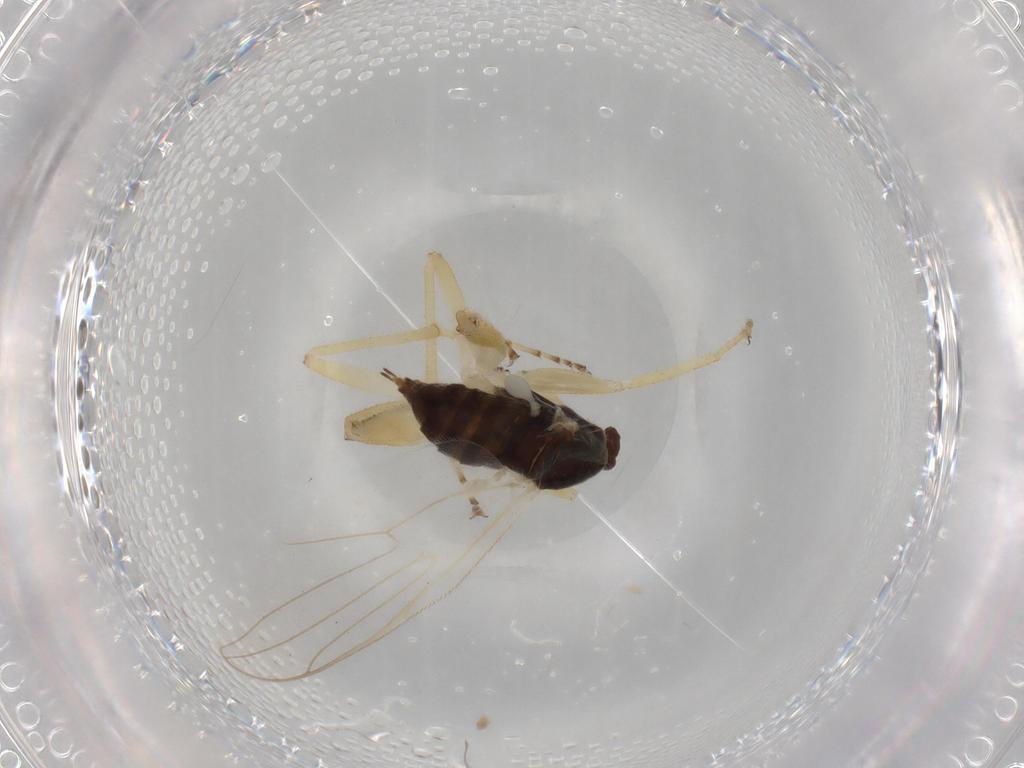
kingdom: Animalia
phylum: Arthropoda
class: Insecta
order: Diptera
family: Hybotidae
